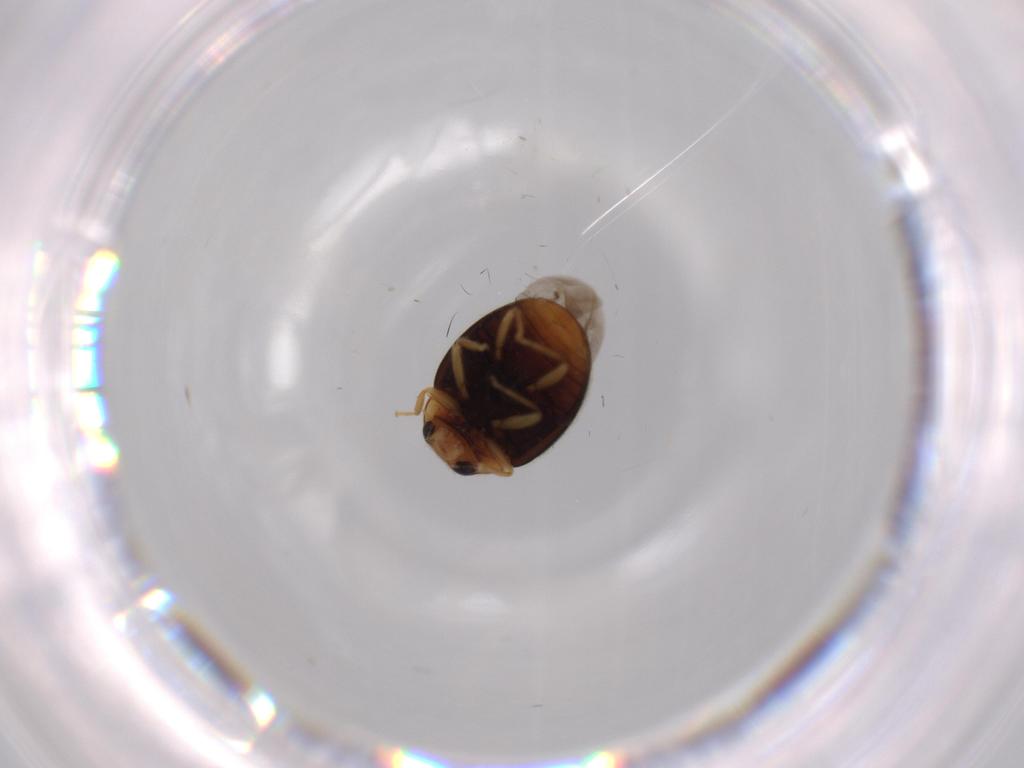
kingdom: Animalia
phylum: Arthropoda
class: Insecta
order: Coleoptera
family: Coccinellidae
